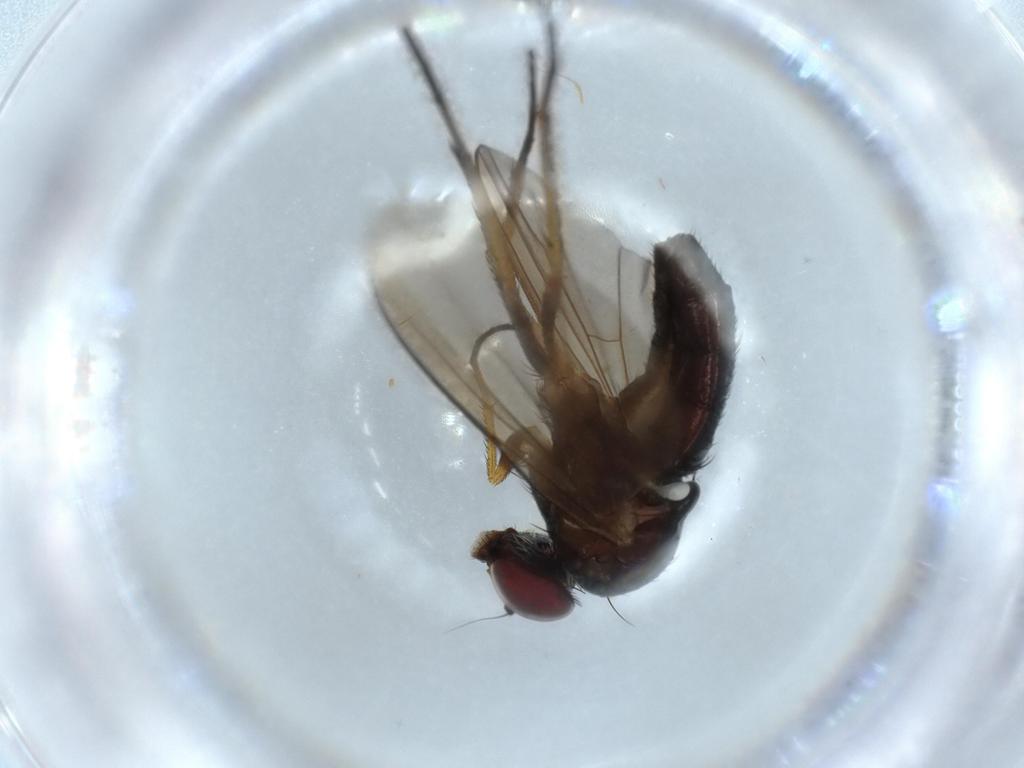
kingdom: Animalia
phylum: Arthropoda
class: Insecta
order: Diptera
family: Dolichopodidae
